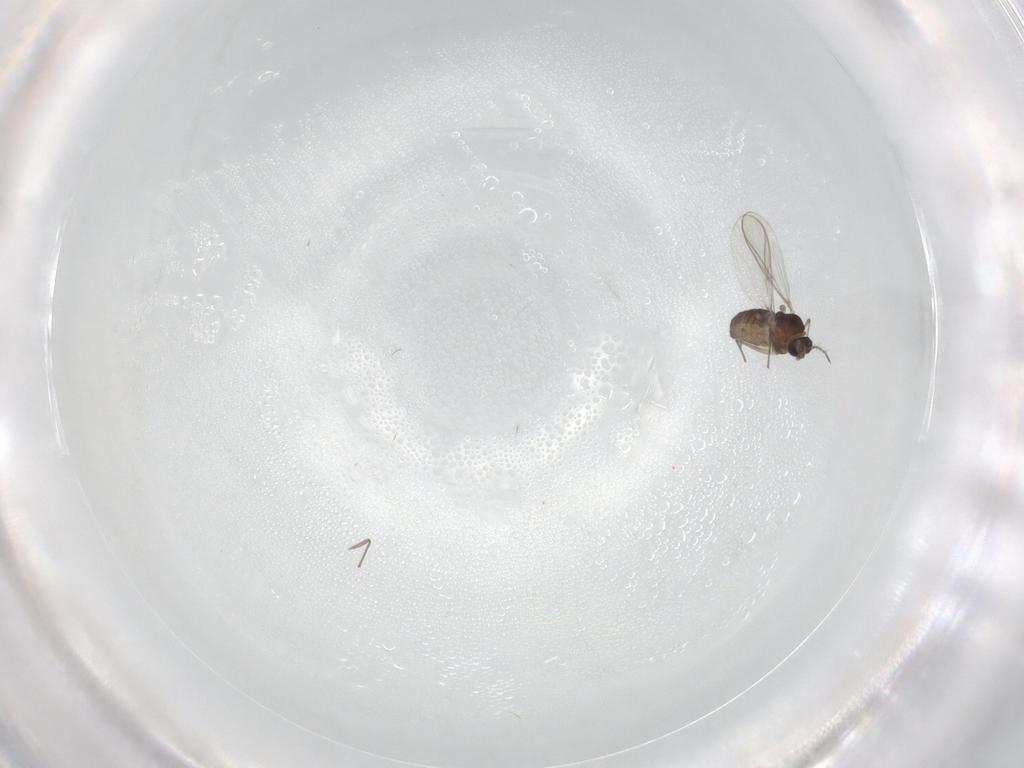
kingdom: Animalia
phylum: Arthropoda
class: Insecta
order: Diptera
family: Chironomidae
